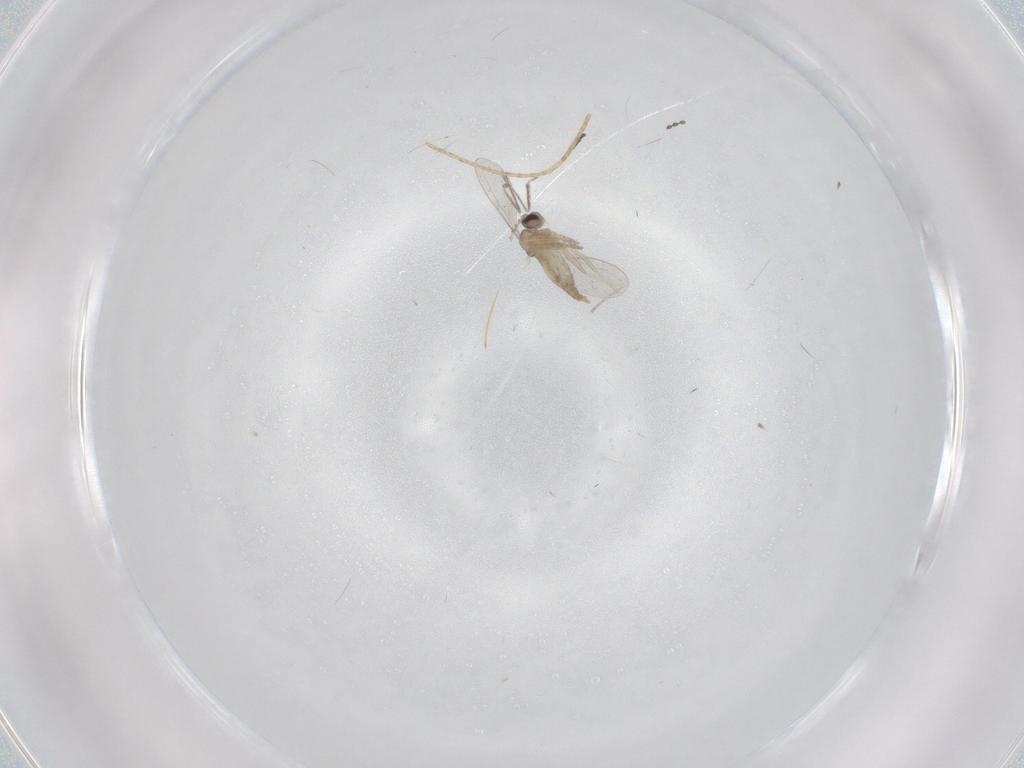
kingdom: Animalia
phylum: Arthropoda
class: Insecta
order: Diptera
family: Cecidomyiidae
